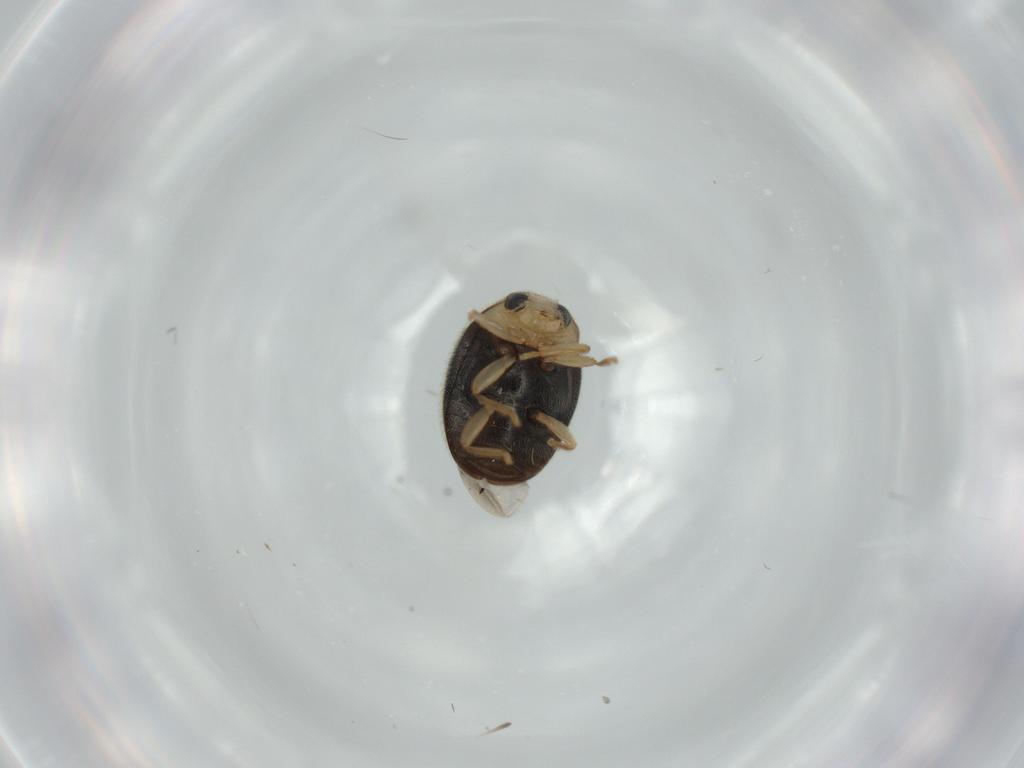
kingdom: Animalia
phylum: Arthropoda
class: Insecta
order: Coleoptera
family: Coccinellidae
